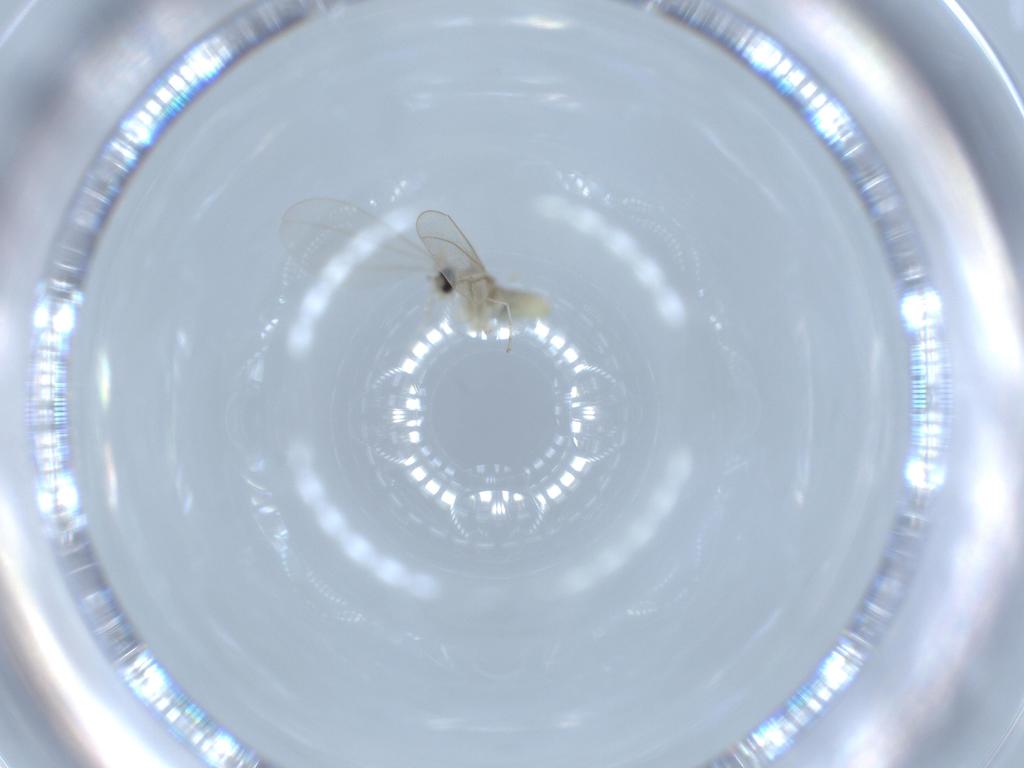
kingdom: Animalia
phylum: Arthropoda
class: Insecta
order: Diptera
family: Cecidomyiidae
